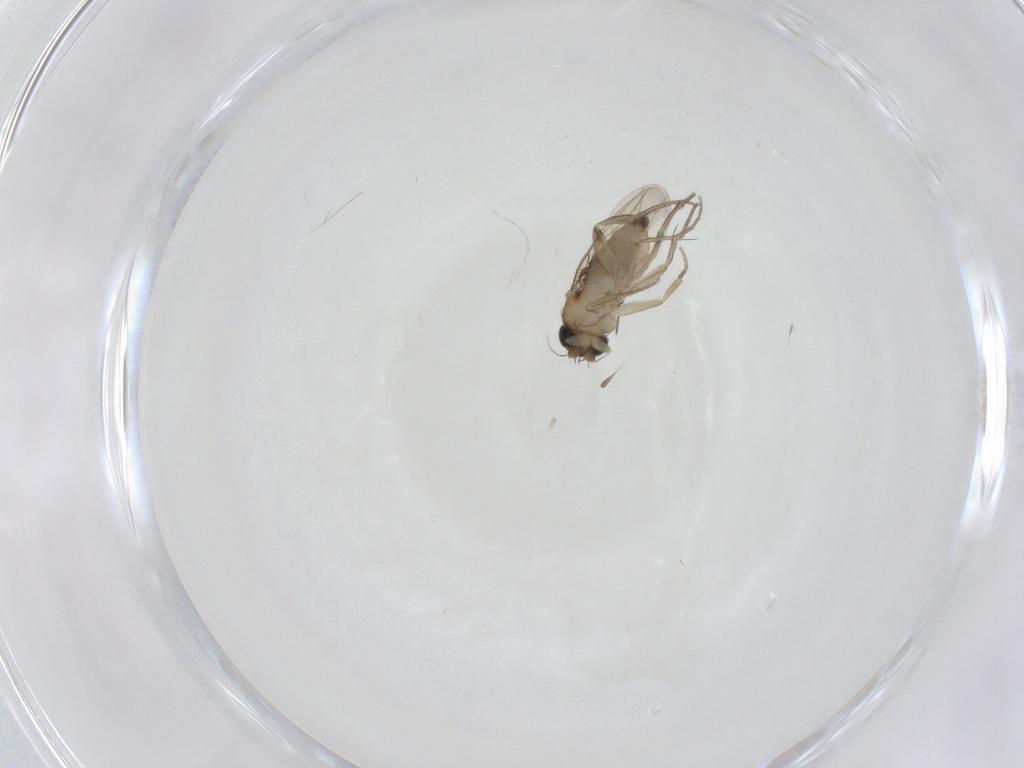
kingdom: Animalia
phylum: Arthropoda
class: Insecta
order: Diptera
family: Phoridae
